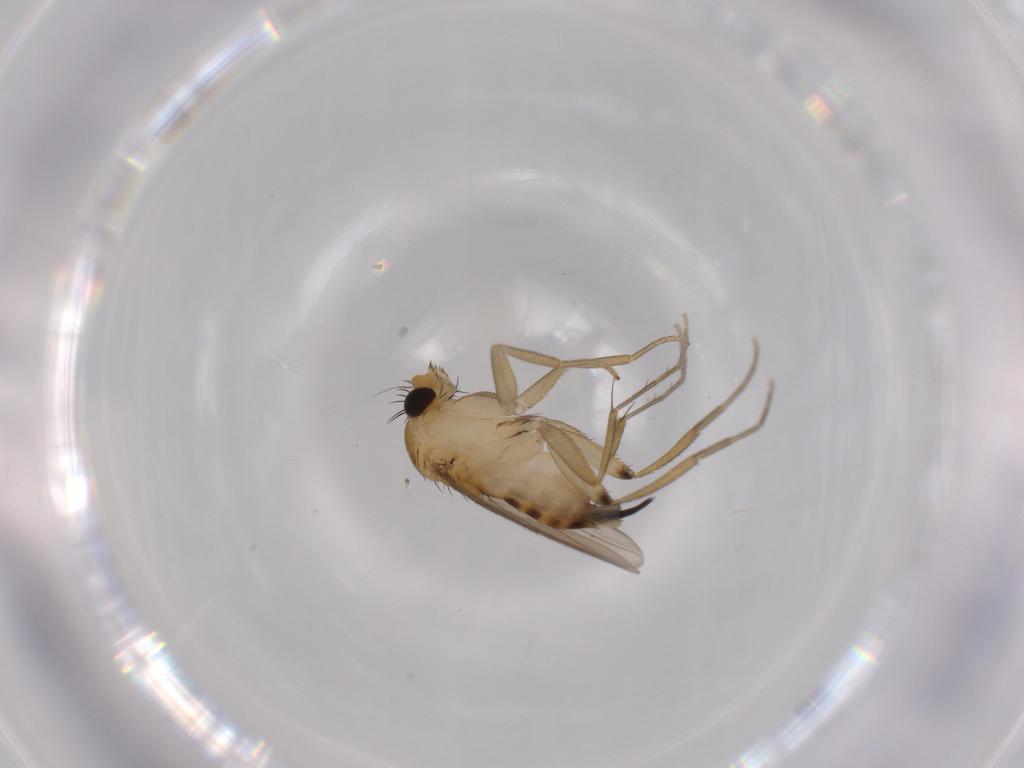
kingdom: Animalia
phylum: Arthropoda
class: Insecta
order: Diptera
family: Phoridae
